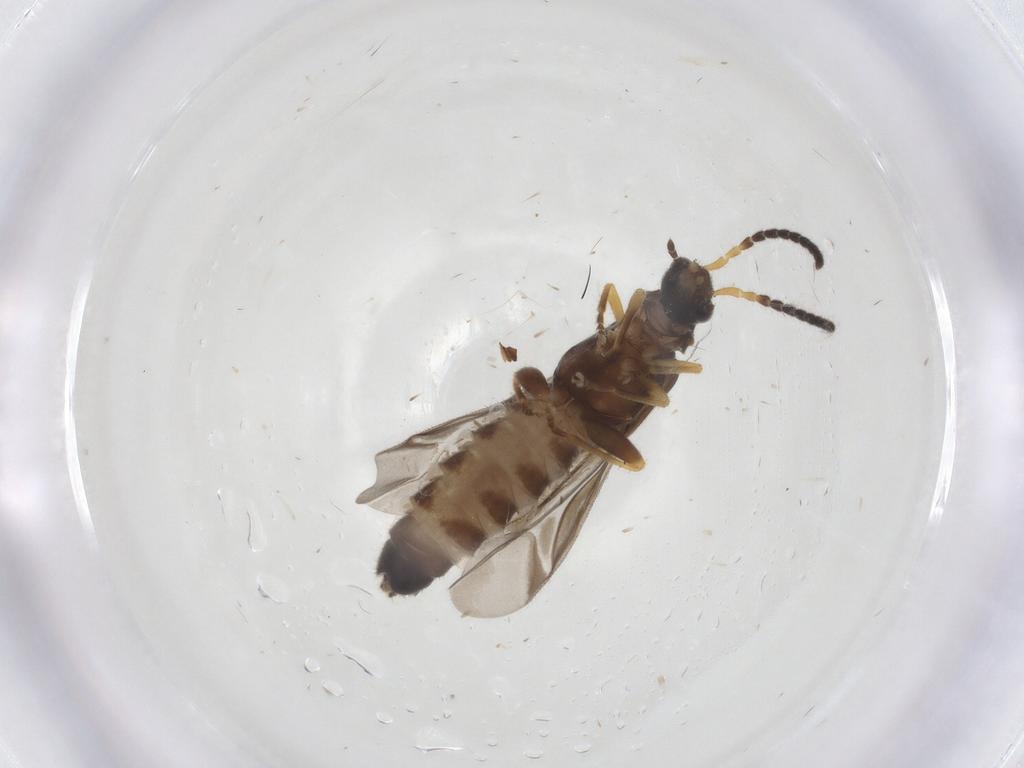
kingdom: Animalia
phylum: Arthropoda
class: Insecta
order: Coleoptera
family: Cantharidae
